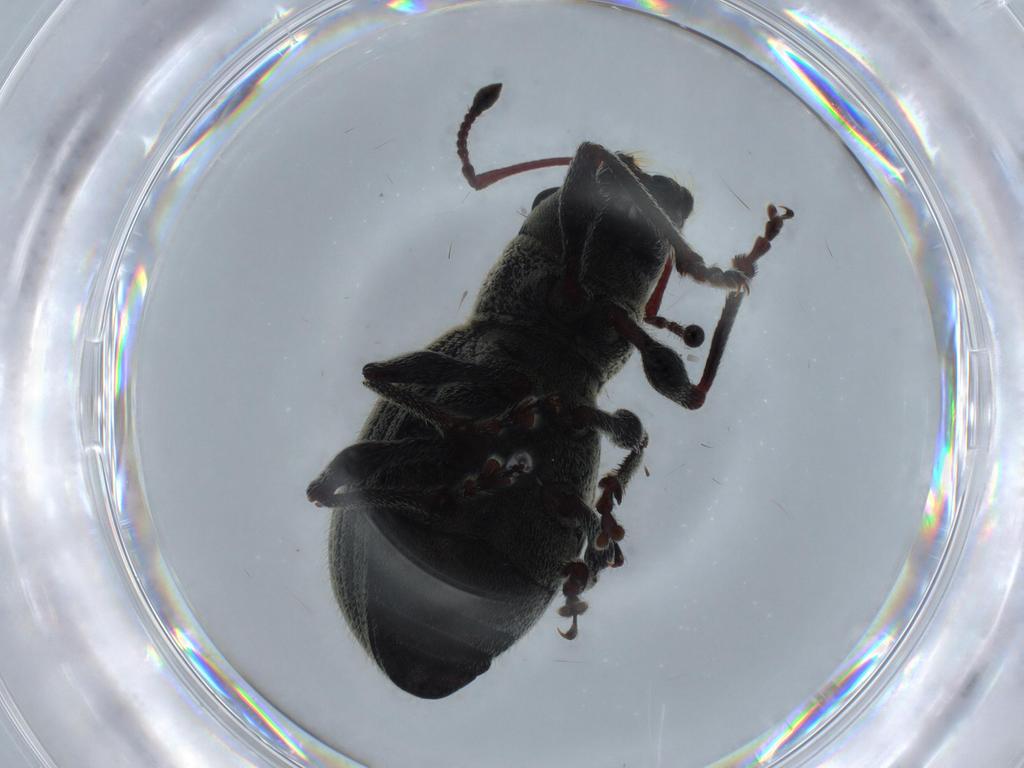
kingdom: Animalia
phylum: Arthropoda
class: Insecta
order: Coleoptera
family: Curculionidae
